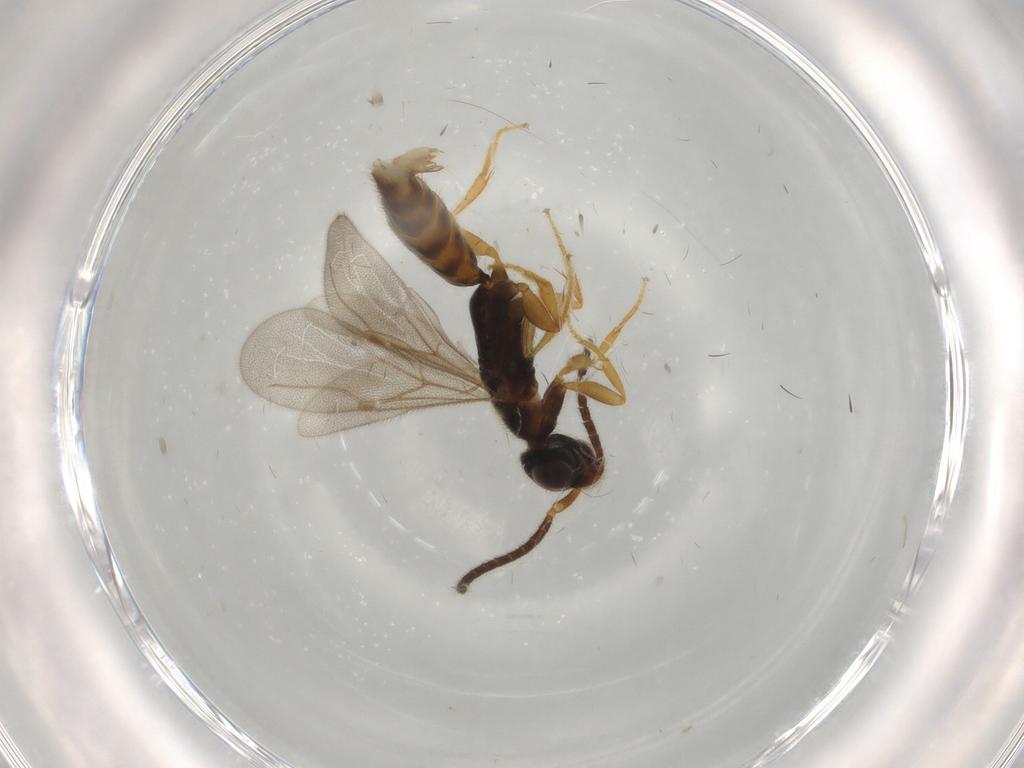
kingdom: Animalia
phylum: Arthropoda
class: Insecta
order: Hymenoptera
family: Bethylidae
